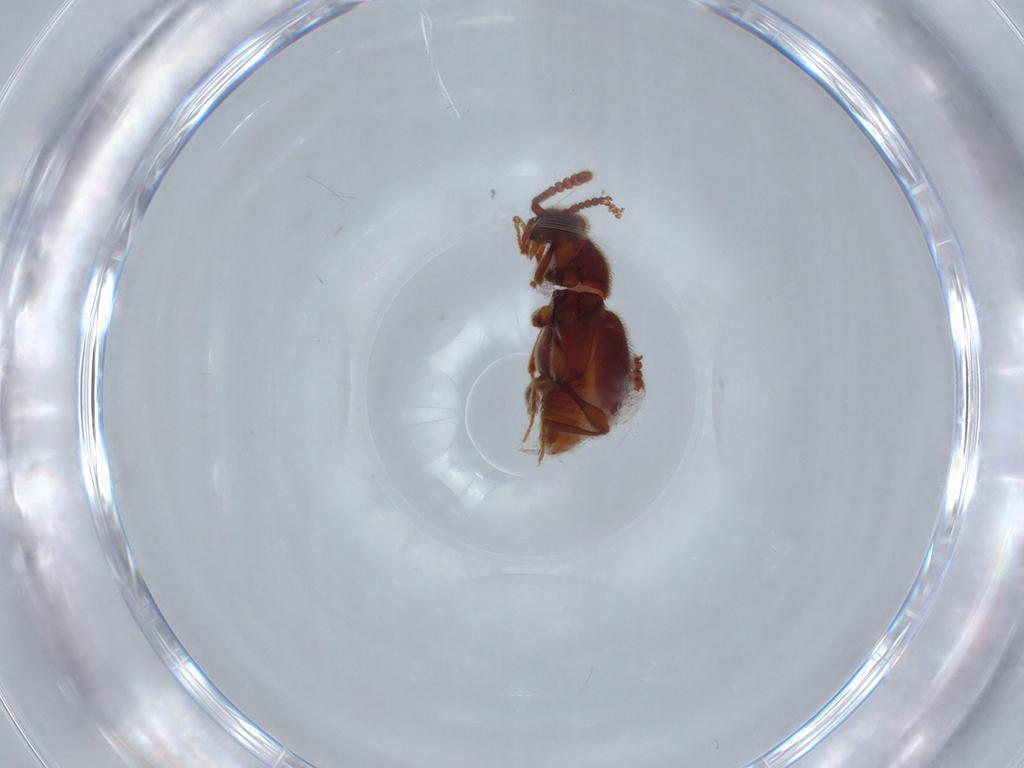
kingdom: Animalia
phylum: Arthropoda
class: Insecta
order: Coleoptera
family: Staphylinidae
